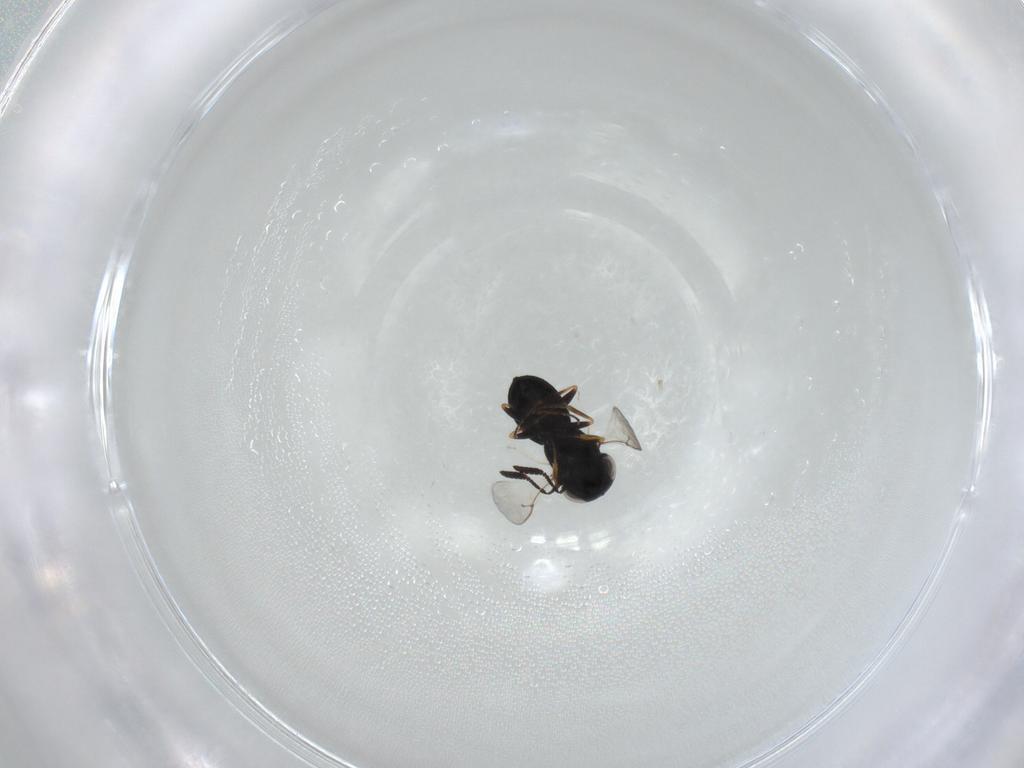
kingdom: Animalia
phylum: Arthropoda
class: Insecta
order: Hymenoptera
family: Scelionidae
